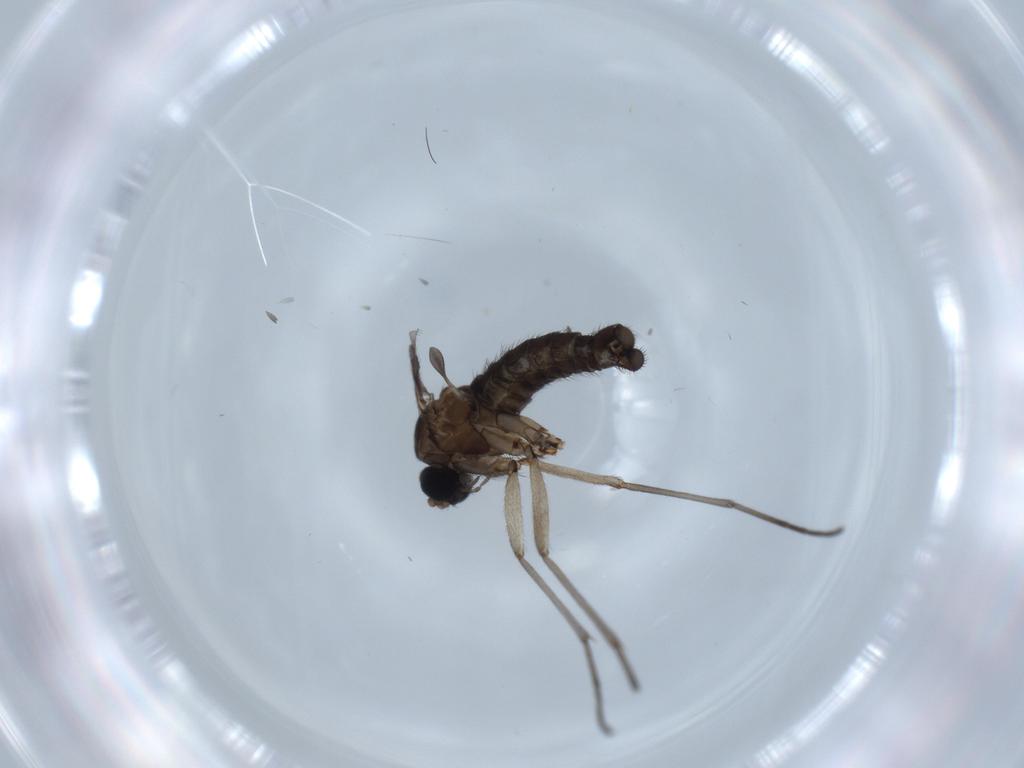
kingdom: Animalia
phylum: Arthropoda
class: Insecta
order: Diptera
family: Sciaridae
